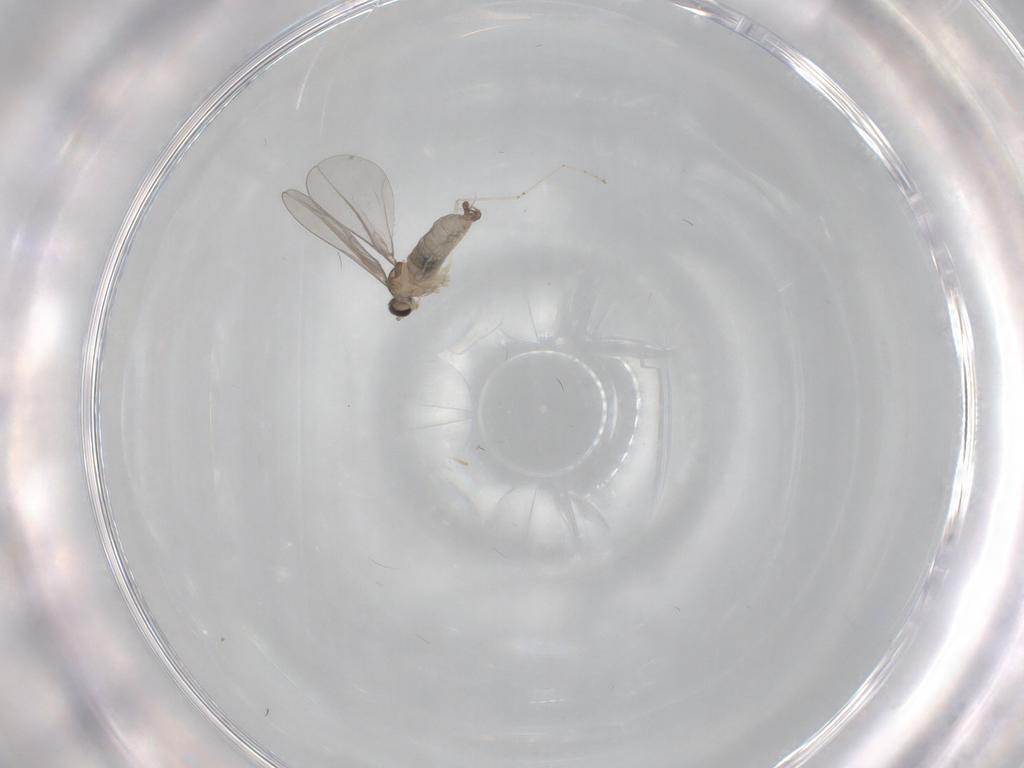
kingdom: Animalia
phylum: Arthropoda
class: Insecta
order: Diptera
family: Cecidomyiidae
